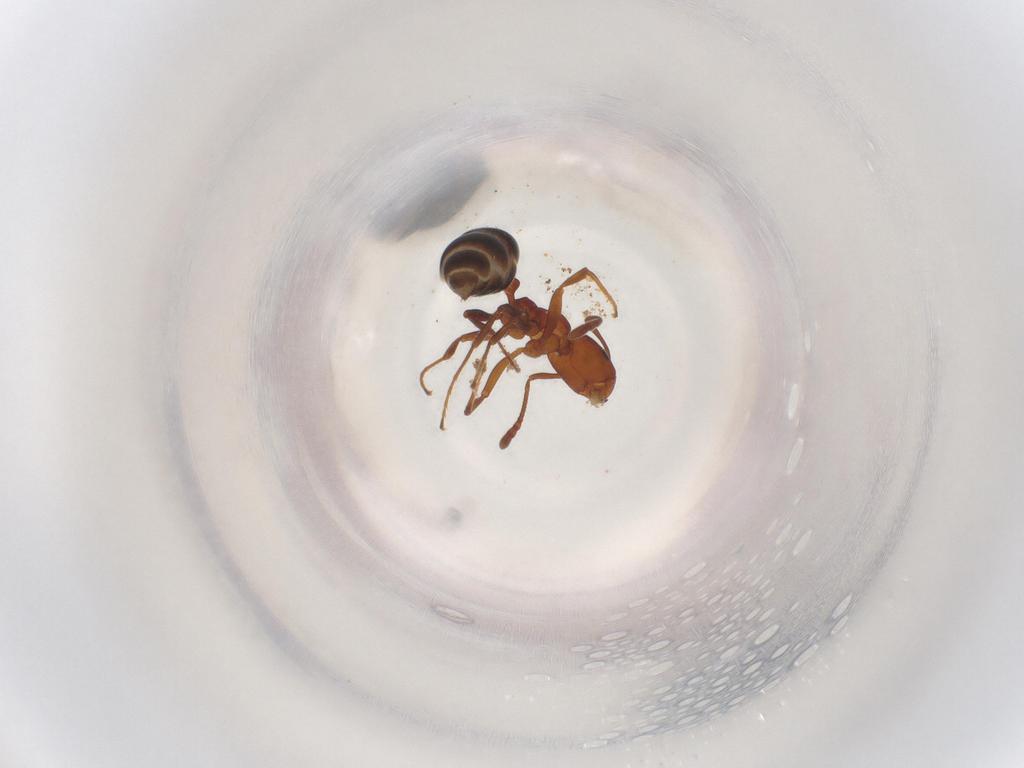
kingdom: Animalia
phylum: Arthropoda
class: Insecta
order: Hymenoptera
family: Formicidae
